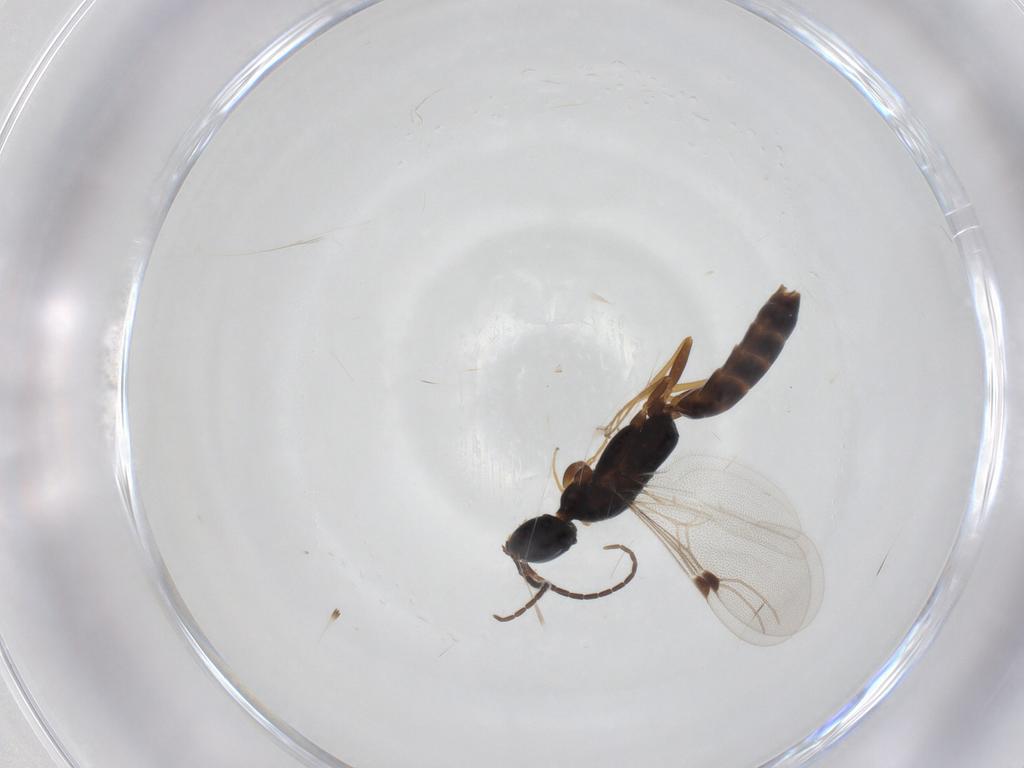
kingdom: Animalia
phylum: Arthropoda
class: Insecta
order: Hymenoptera
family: Bethylidae
